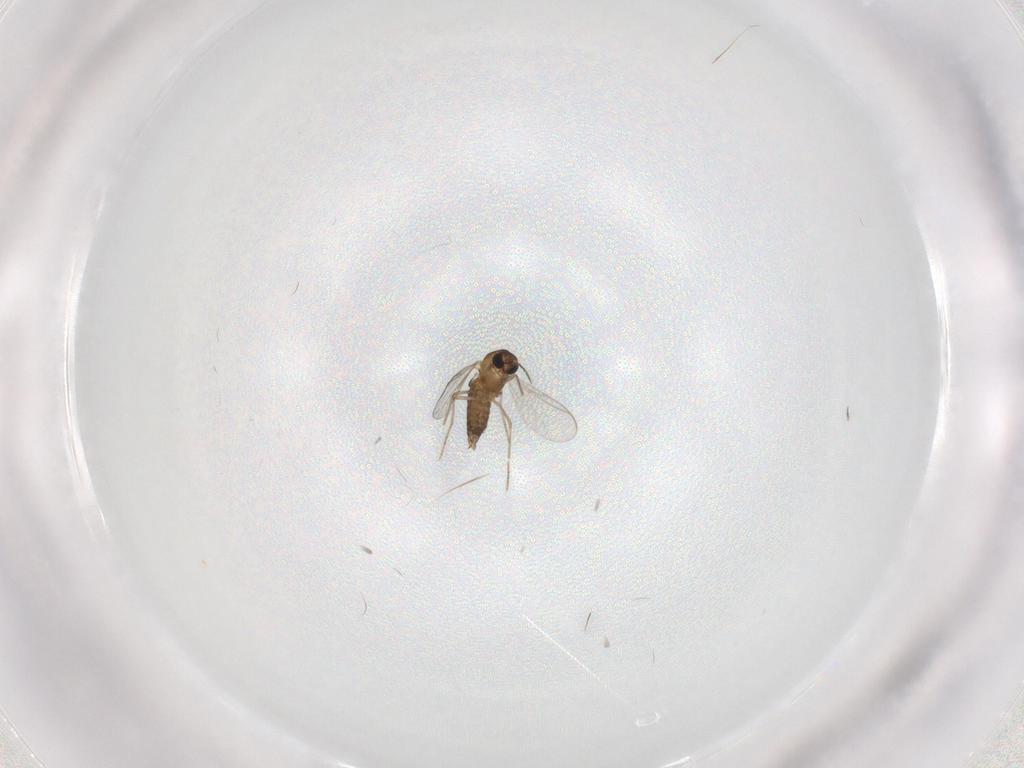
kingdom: Animalia
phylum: Arthropoda
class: Insecta
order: Diptera
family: Chironomidae
